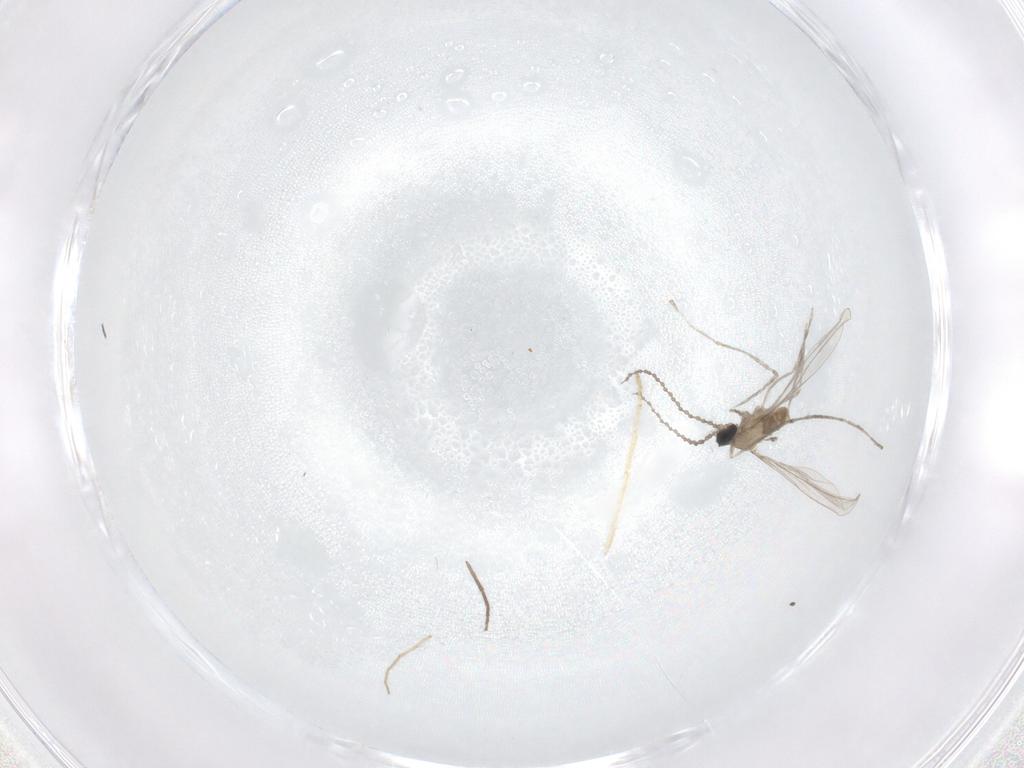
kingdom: Animalia
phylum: Arthropoda
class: Insecta
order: Diptera
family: Cecidomyiidae
